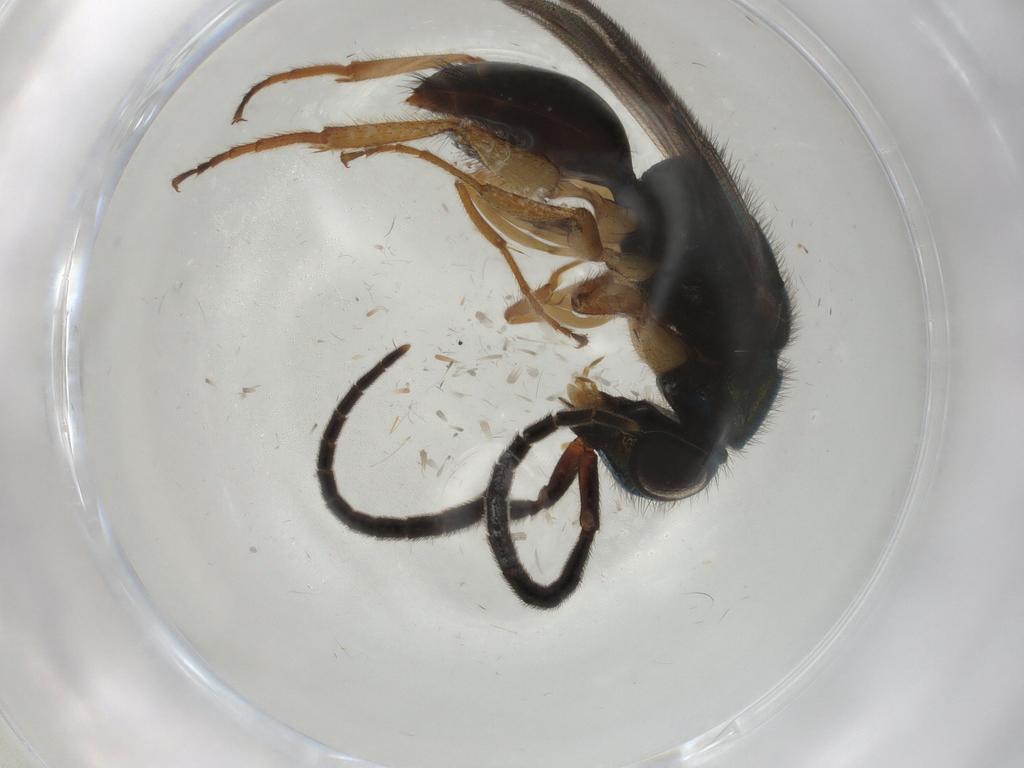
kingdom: Animalia
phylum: Arthropoda
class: Insecta
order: Hymenoptera
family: Chrysididae
